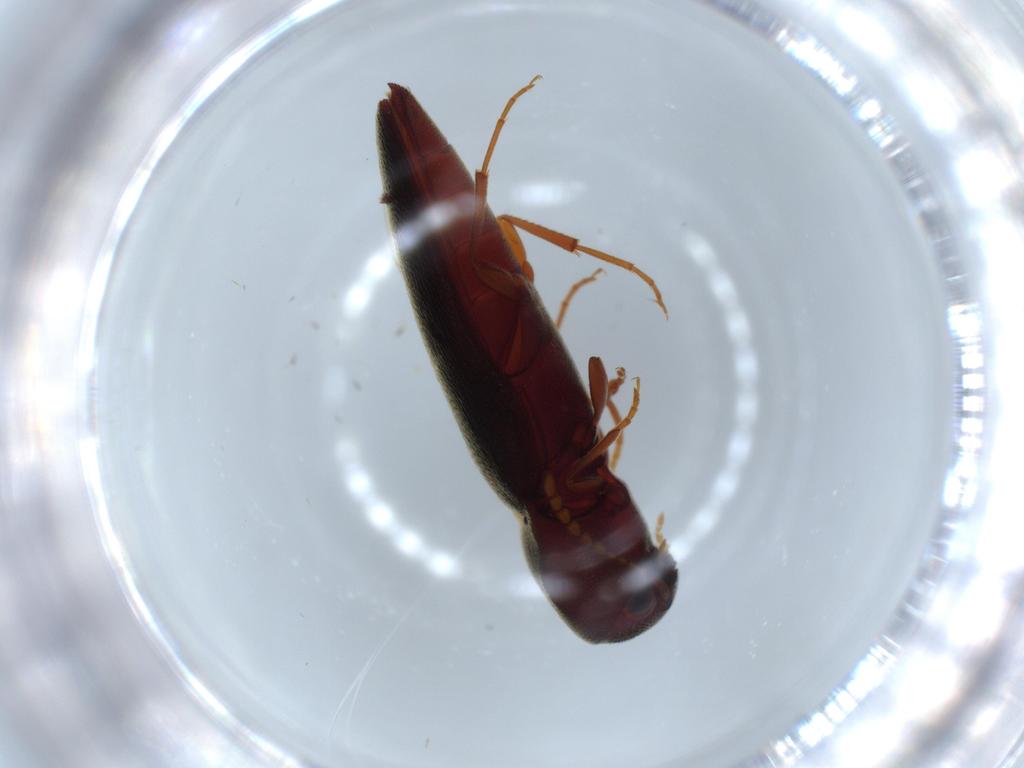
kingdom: Animalia
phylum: Arthropoda
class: Insecta
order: Coleoptera
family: Eucnemidae
